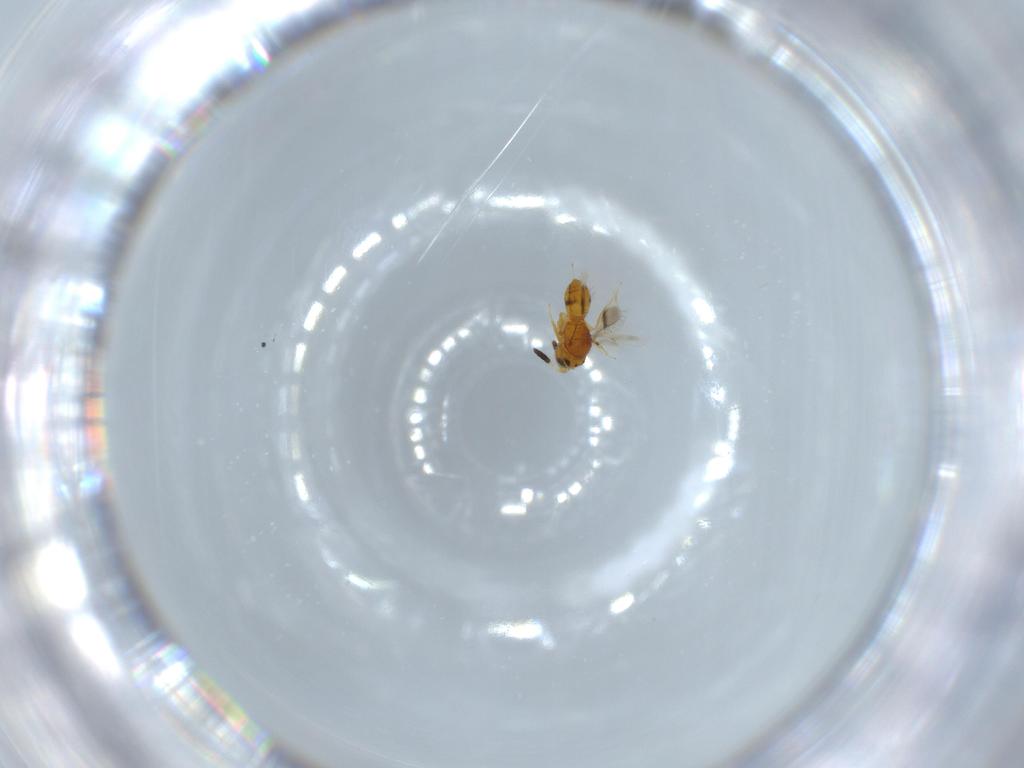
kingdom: Animalia
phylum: Arthropoda
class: Insecta
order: Hymenoptera
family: Scelionidae
